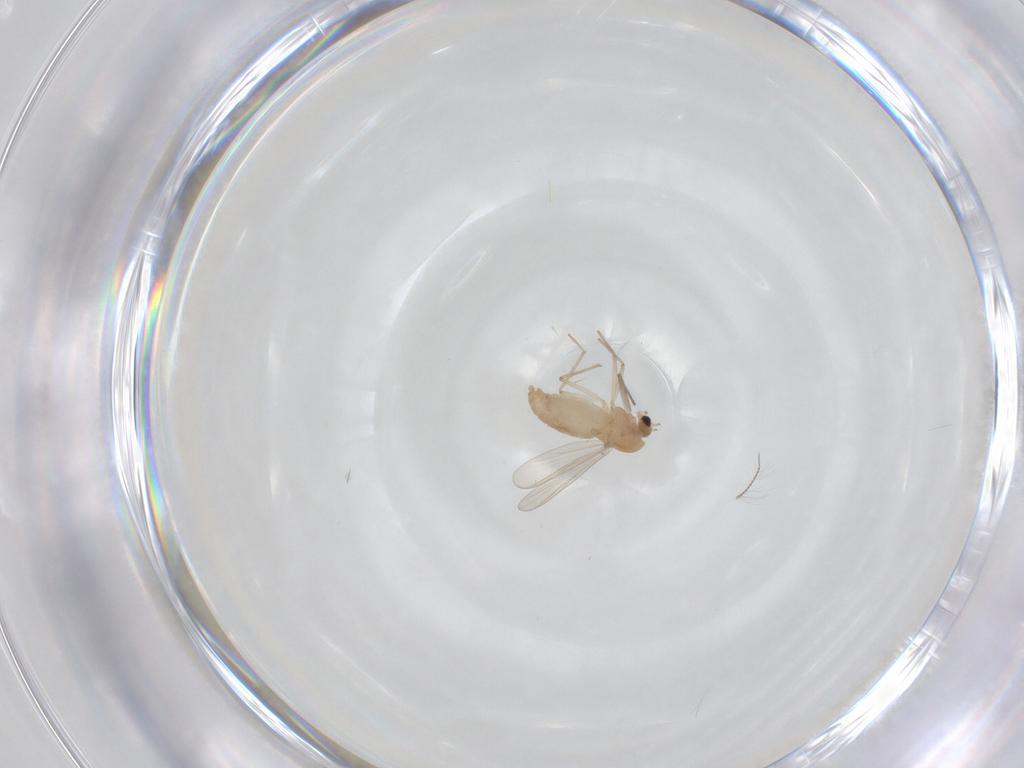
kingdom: Animalia
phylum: Arthropoda
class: Insecta
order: Diptera
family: Chironomidae
